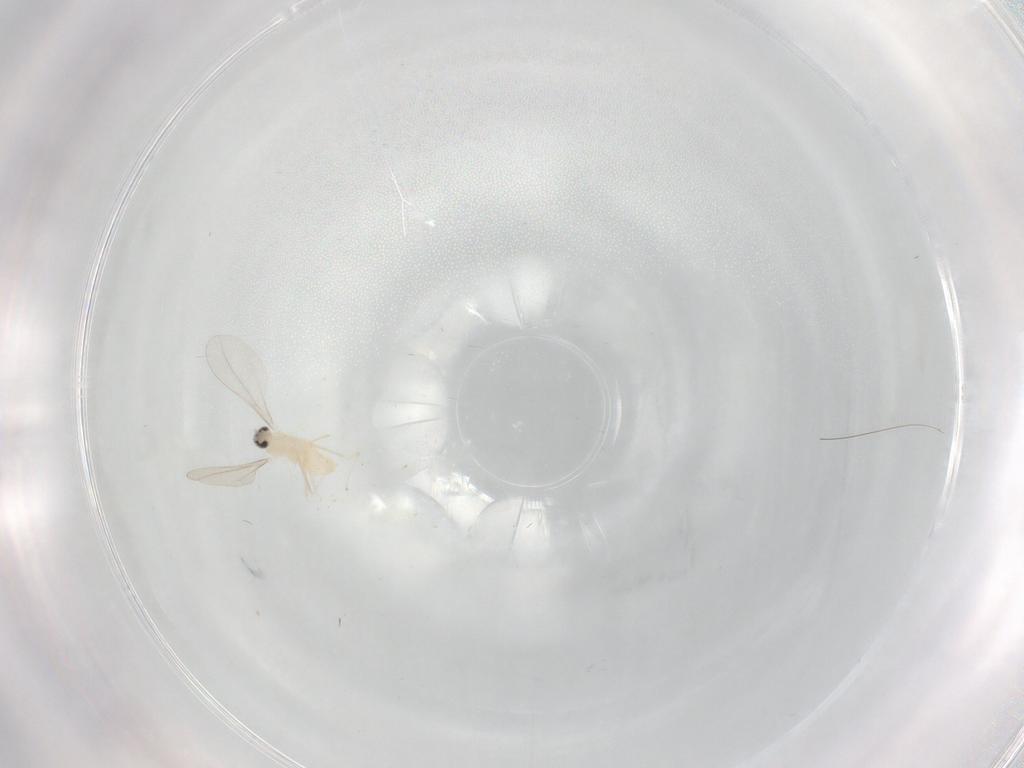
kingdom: Animalia
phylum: Arthropoda
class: Insecta
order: Diptera
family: Cecidomyiidae
